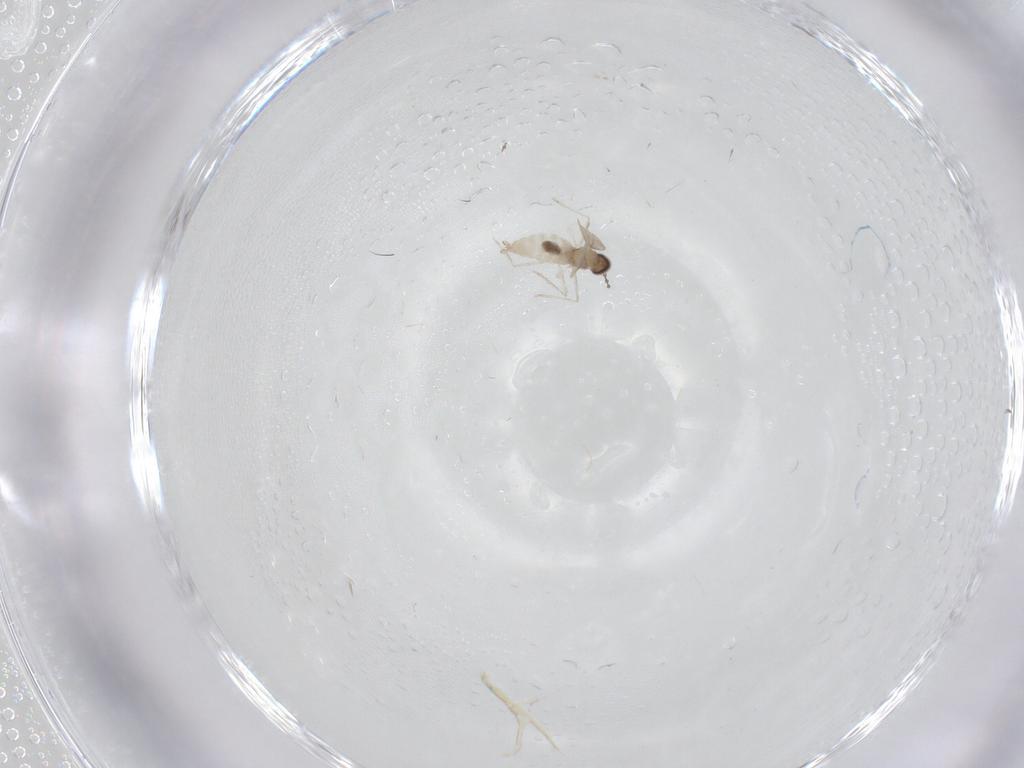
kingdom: Animalia
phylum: Arthropoda
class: Insecta
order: Diptera
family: Cecidomyiidae
